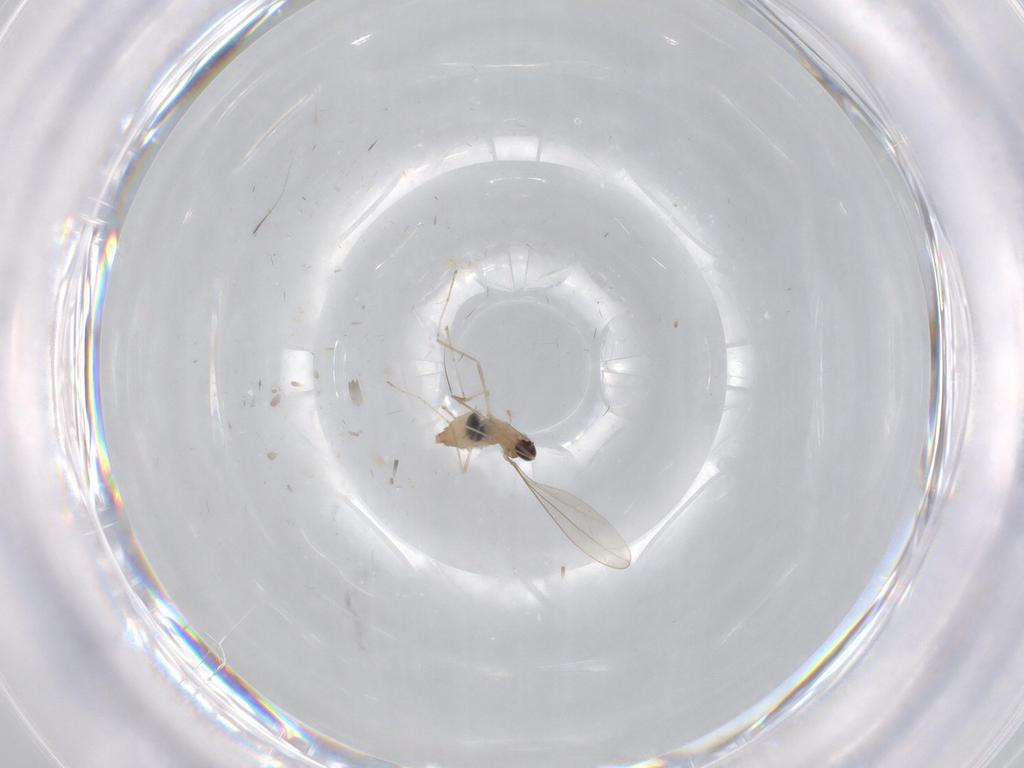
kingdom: Animalia
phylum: Arthropoda
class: Insecta
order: Diptera
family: Cecidomyiidae
